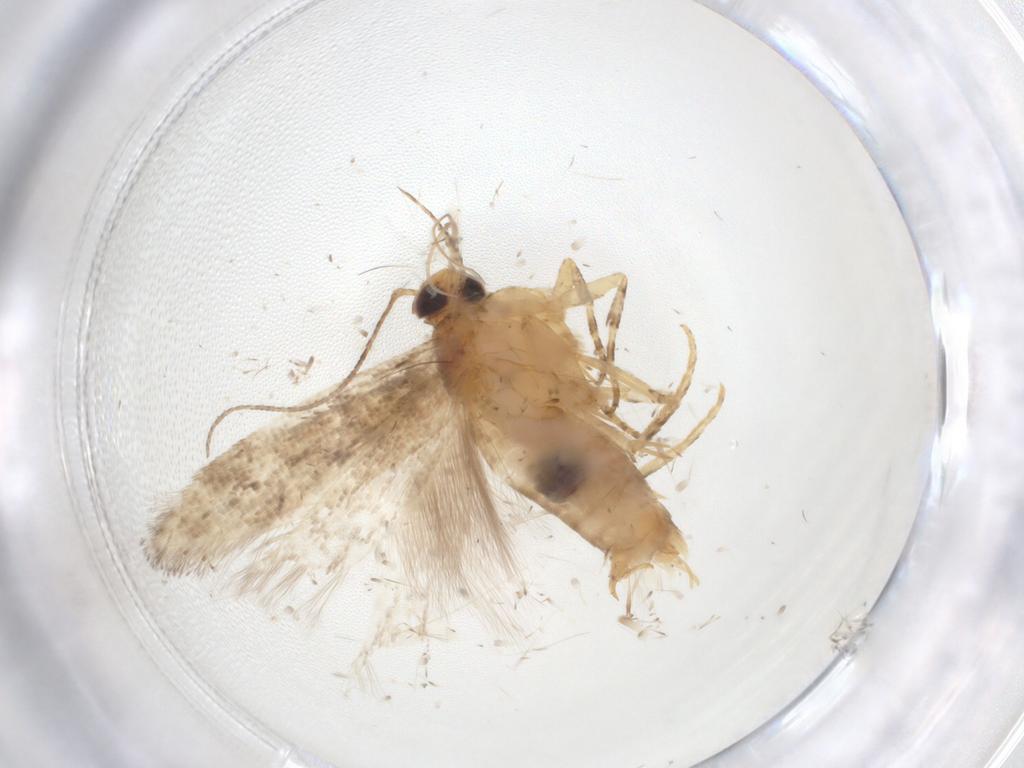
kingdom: Animalia
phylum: Arthropoda
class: Insecta
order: Lepidoptera
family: Gelechiidae
